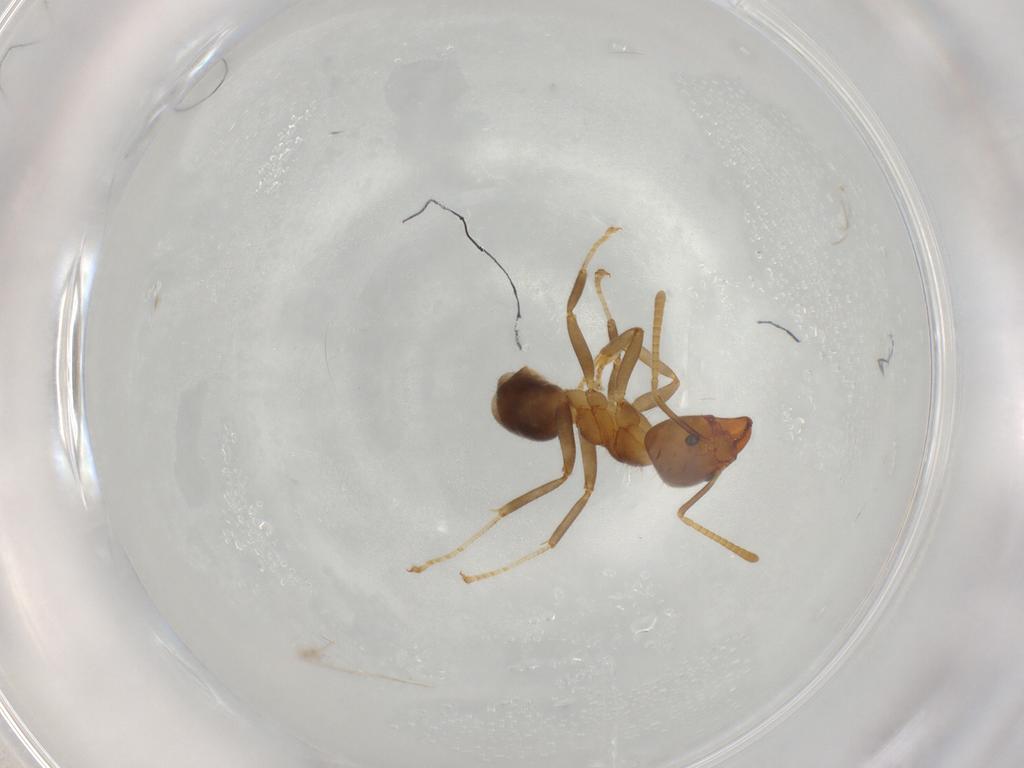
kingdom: Animalia
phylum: Arthropoda
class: Insecta
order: Hymenoptera
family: Formicidae
